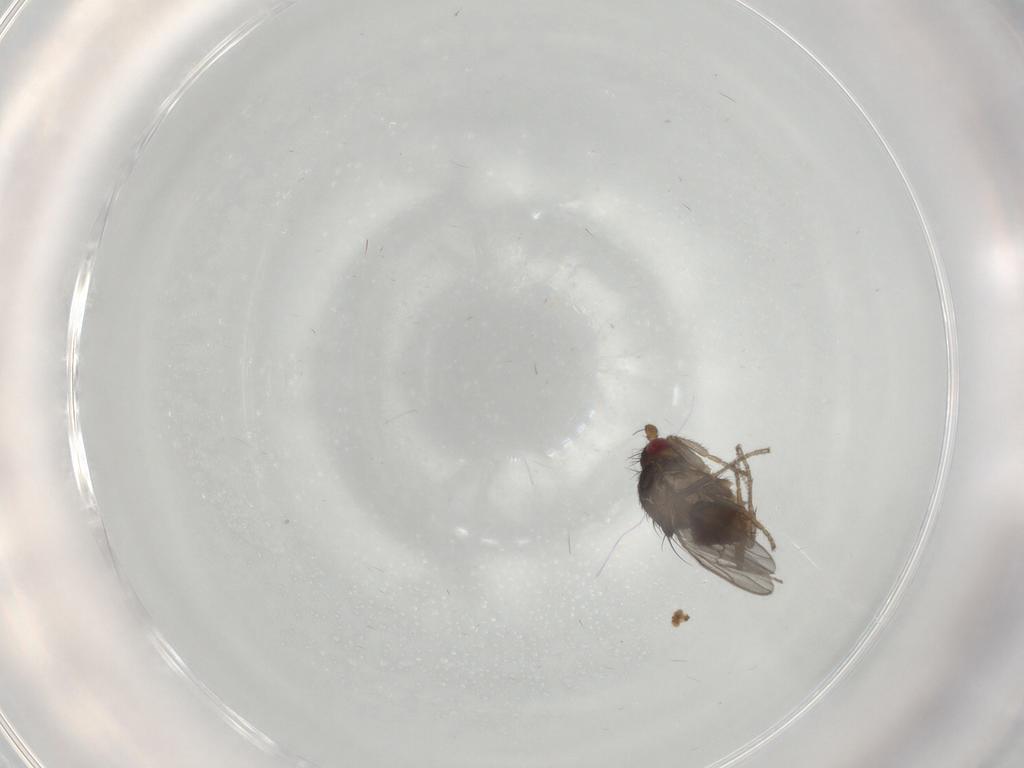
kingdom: Animalia
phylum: Arthropoda
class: Insecta
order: Diptera
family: Sphaeroceridae
